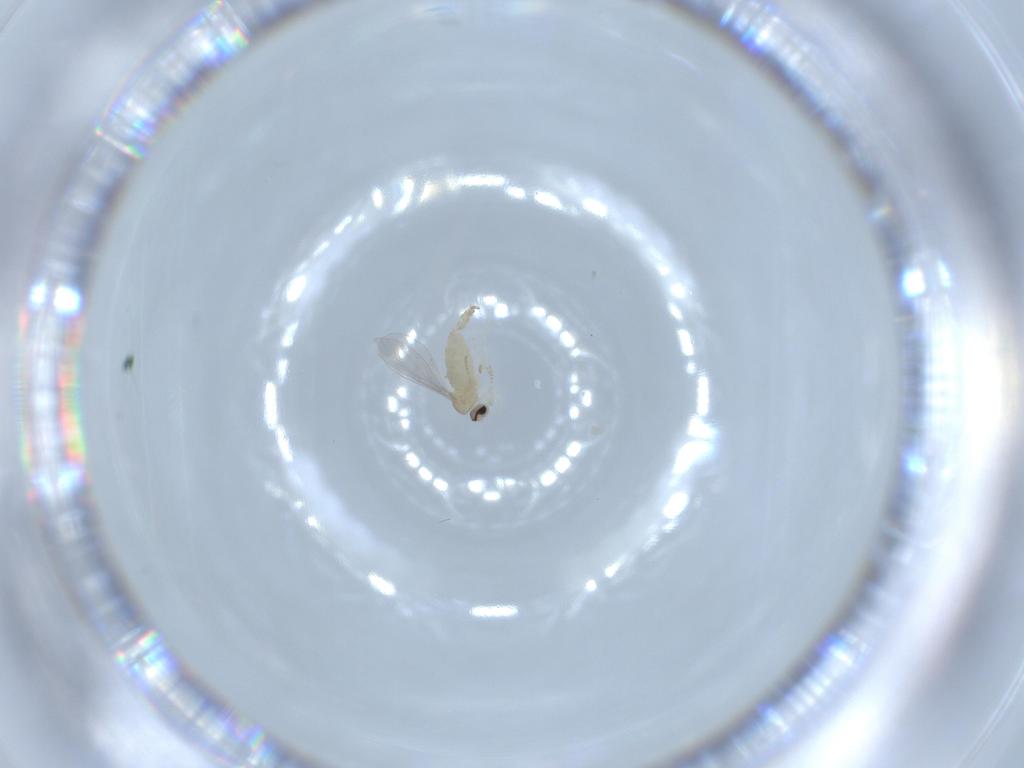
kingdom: Animalia
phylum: Arthropoda
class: Insecta
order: Diptera
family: Cecidomyiidae
